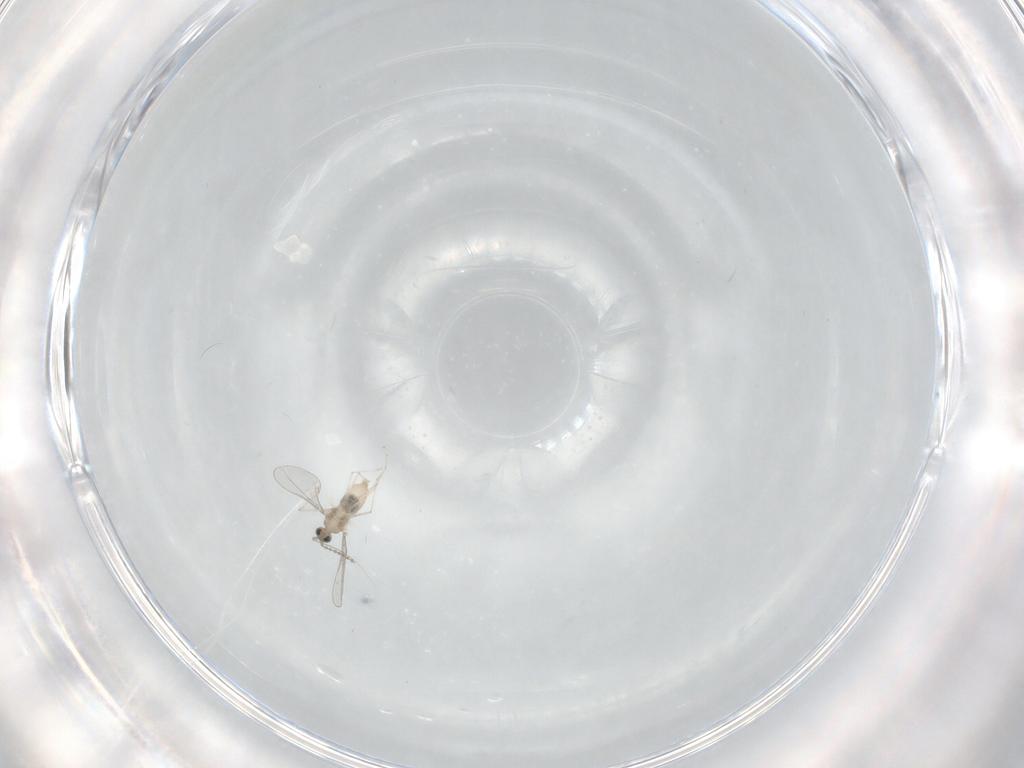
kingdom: Animalia
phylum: Arthropoda
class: Insecta
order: Diptera
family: Cecidomyiidae
